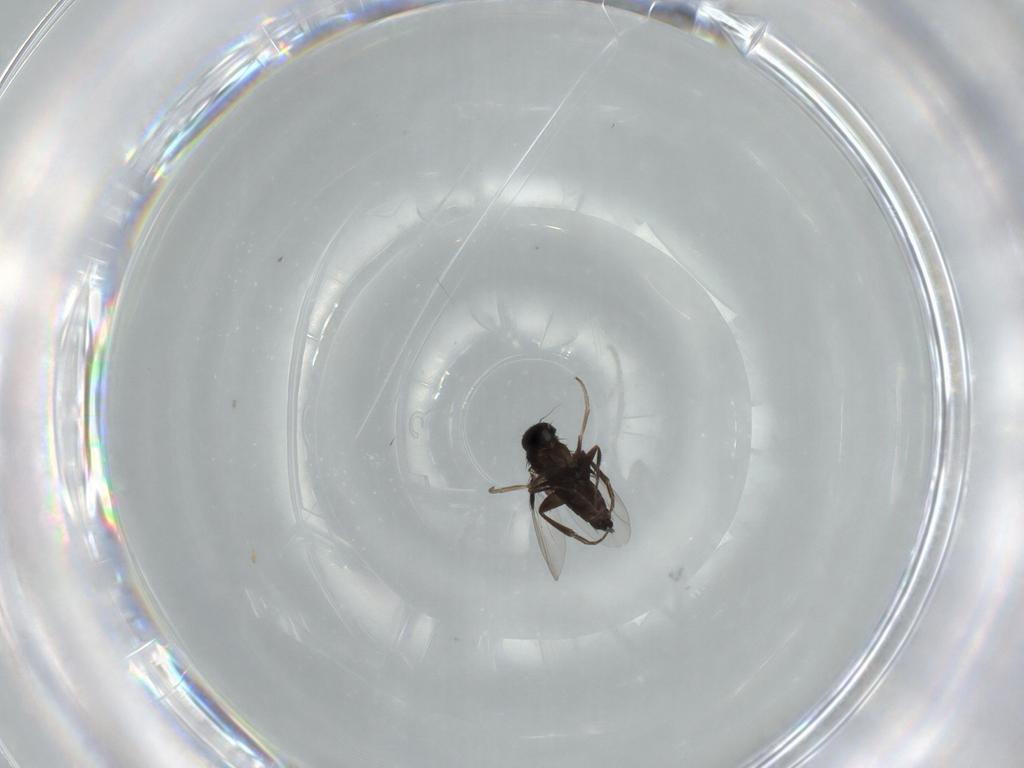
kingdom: Animalia
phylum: Arthropoda
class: Insecta
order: Diptera
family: Phoridae
